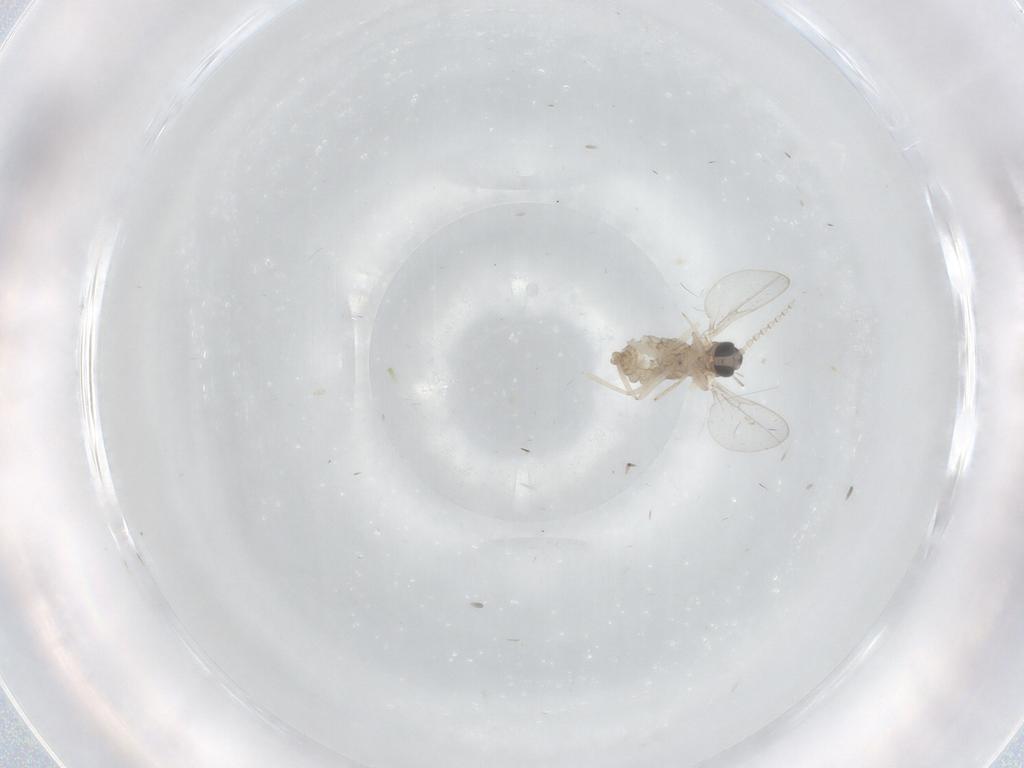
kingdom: Animalia
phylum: Arthropoda
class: Insecta
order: Diptera
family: Cecidomyiidae
